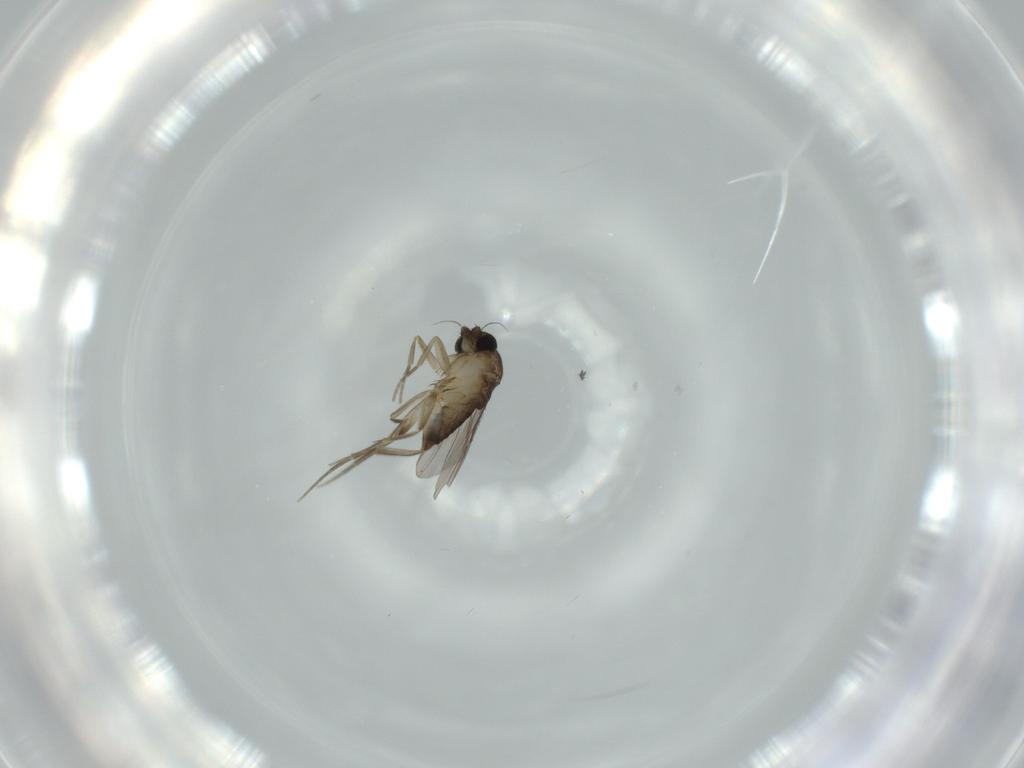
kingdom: Animalia
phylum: Arthropoda
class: Insecta
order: Diptera
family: Phoridae
